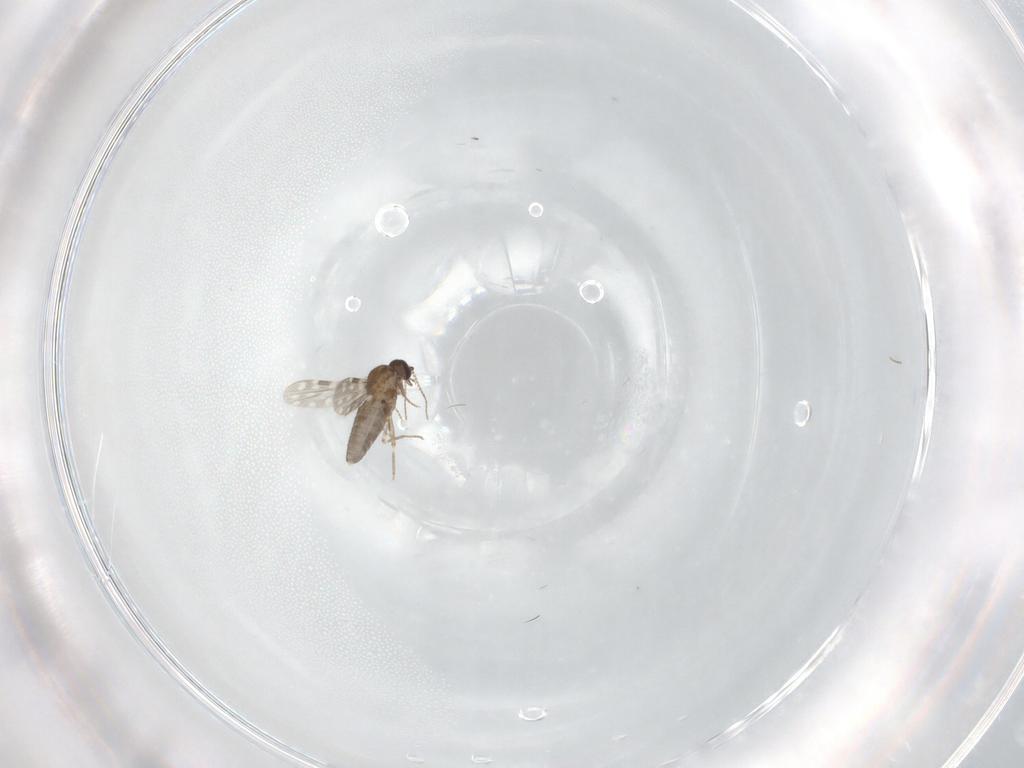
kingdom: Animalia
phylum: Arthropoda
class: Insecta
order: Diptera
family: Ceratopogonidae
